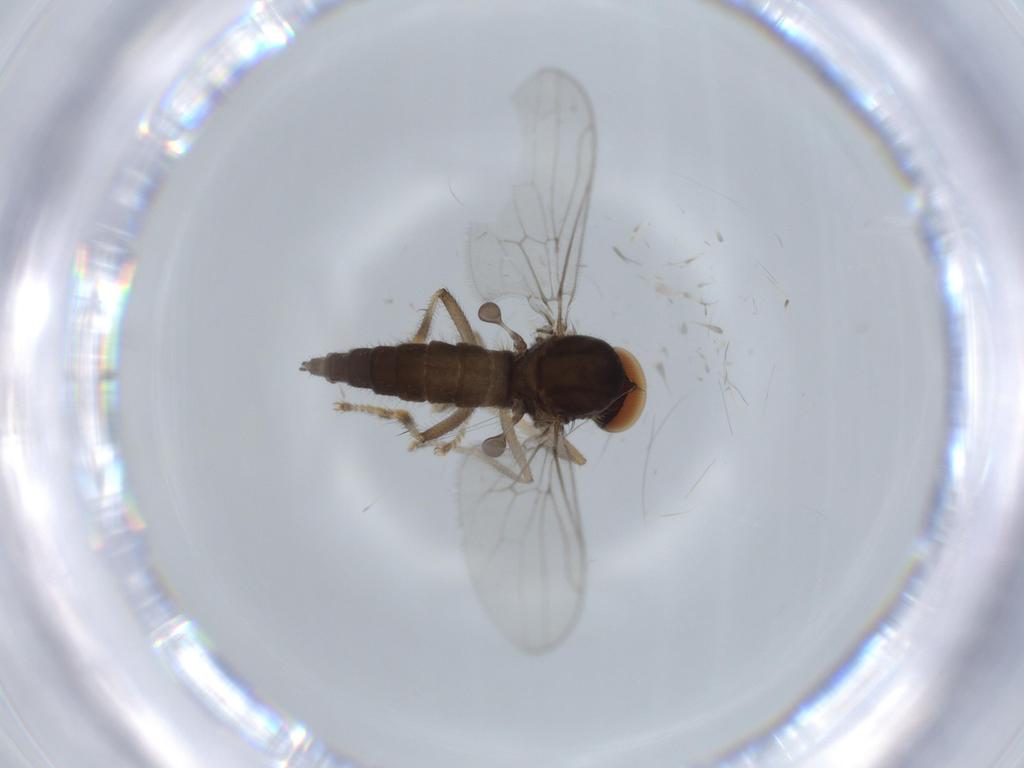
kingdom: Animalia
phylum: Arthropoda
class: Insecta
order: Diptera
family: Hybotidae
